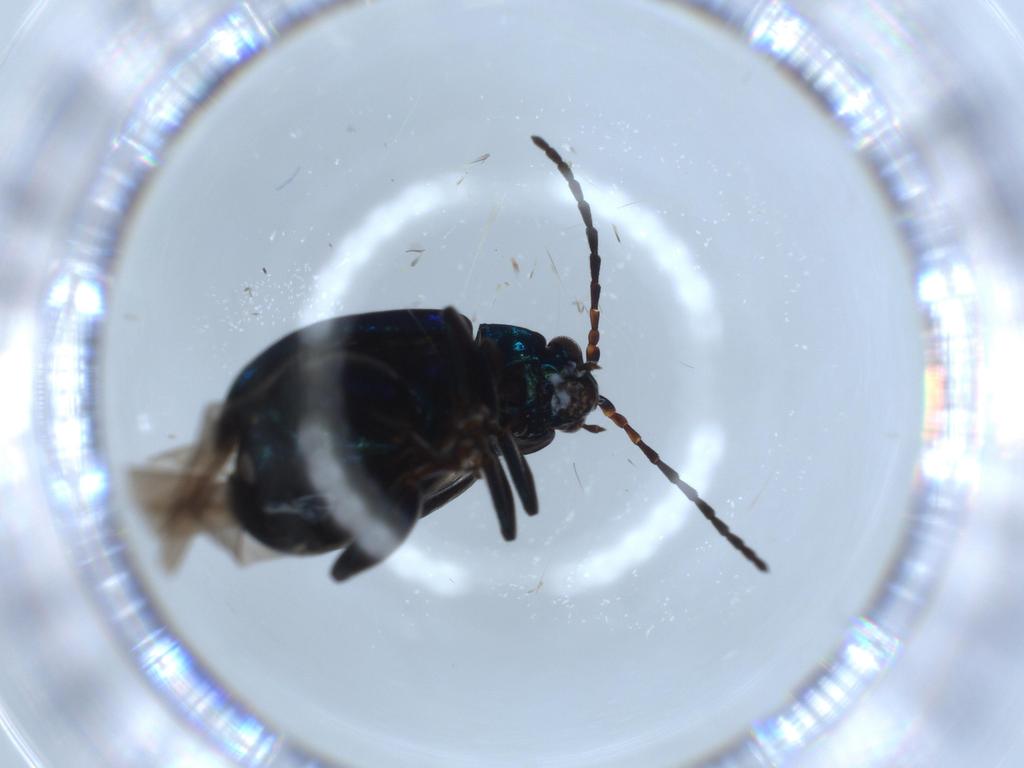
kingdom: Animalia
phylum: Arthropoda
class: Insecta
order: Coleoptera
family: Chrysomelidae
